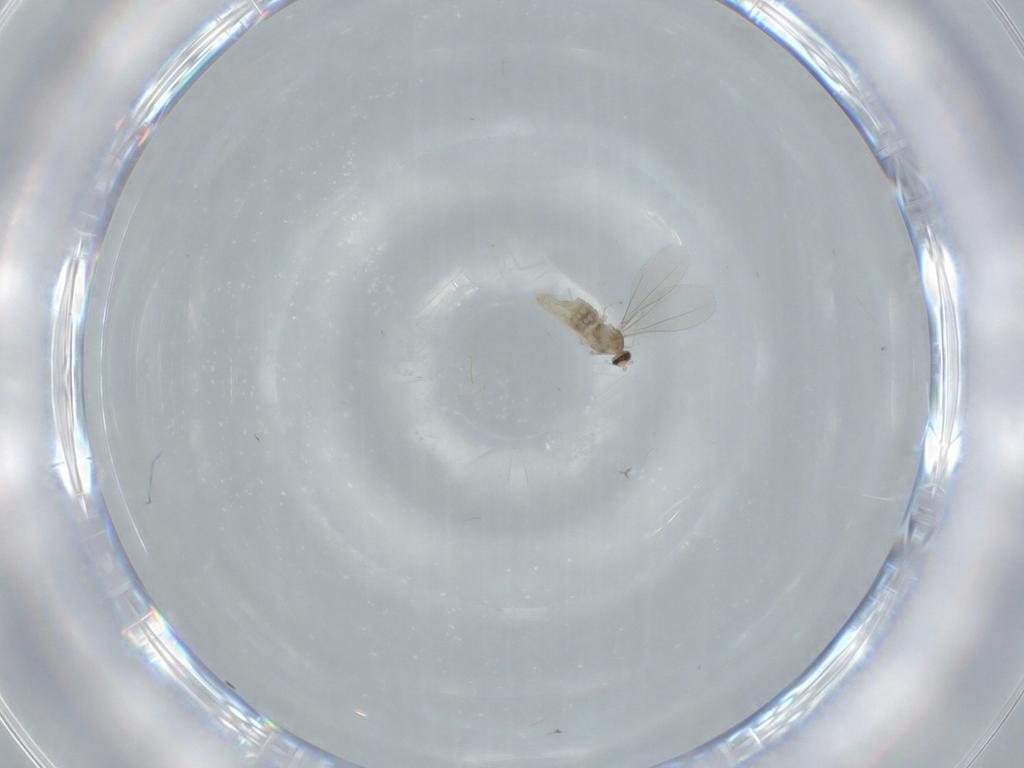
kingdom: Animalia
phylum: Arthropoda
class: Insecta
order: Diptera
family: Cecidomyiidae
